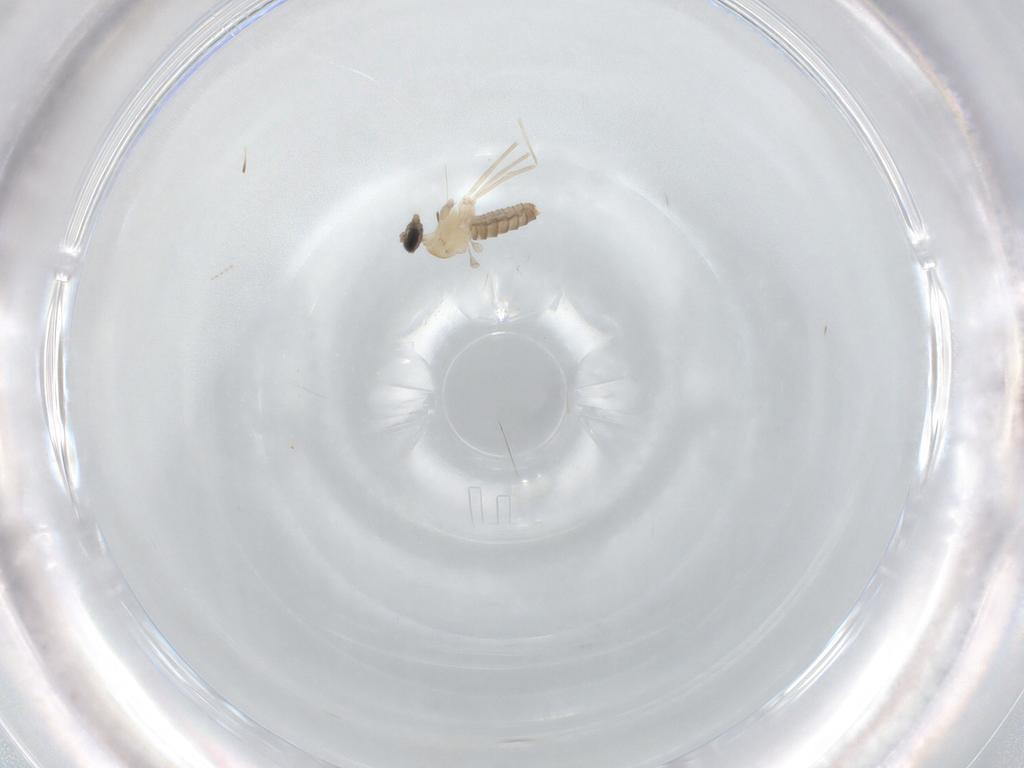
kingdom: Animalia
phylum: Arthropoda
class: Insecta
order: Diptera
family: Cecidomyiidae
